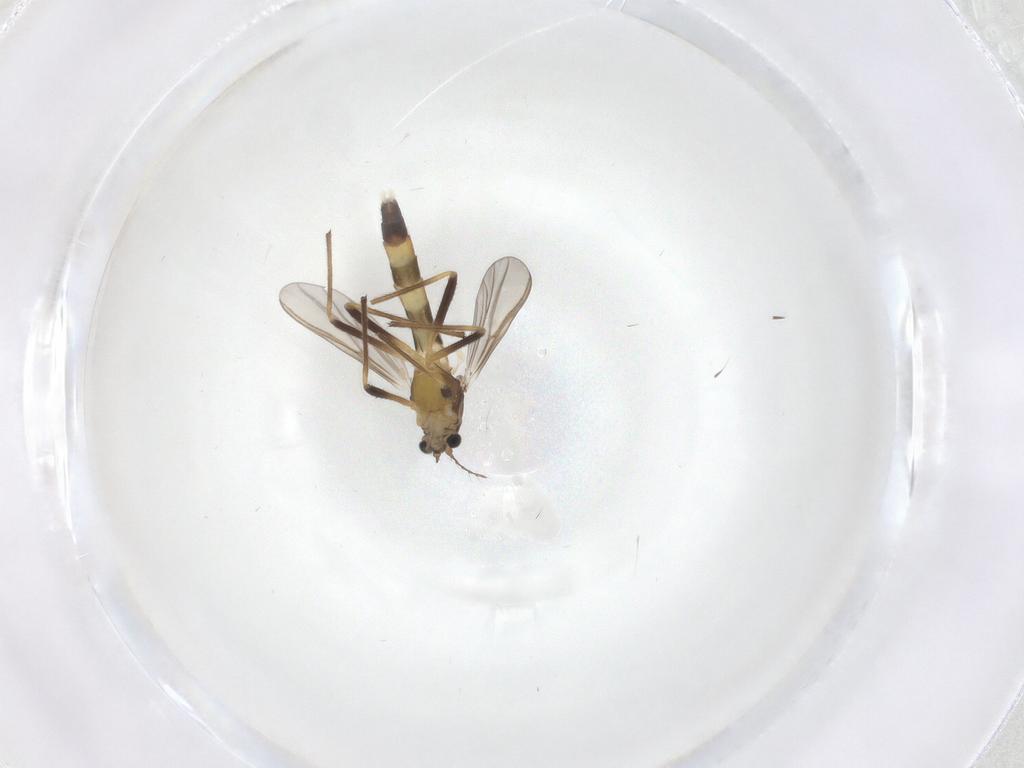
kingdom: Animalia
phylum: Arthropoda
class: Insecta
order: Diptera
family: Chironomidae
